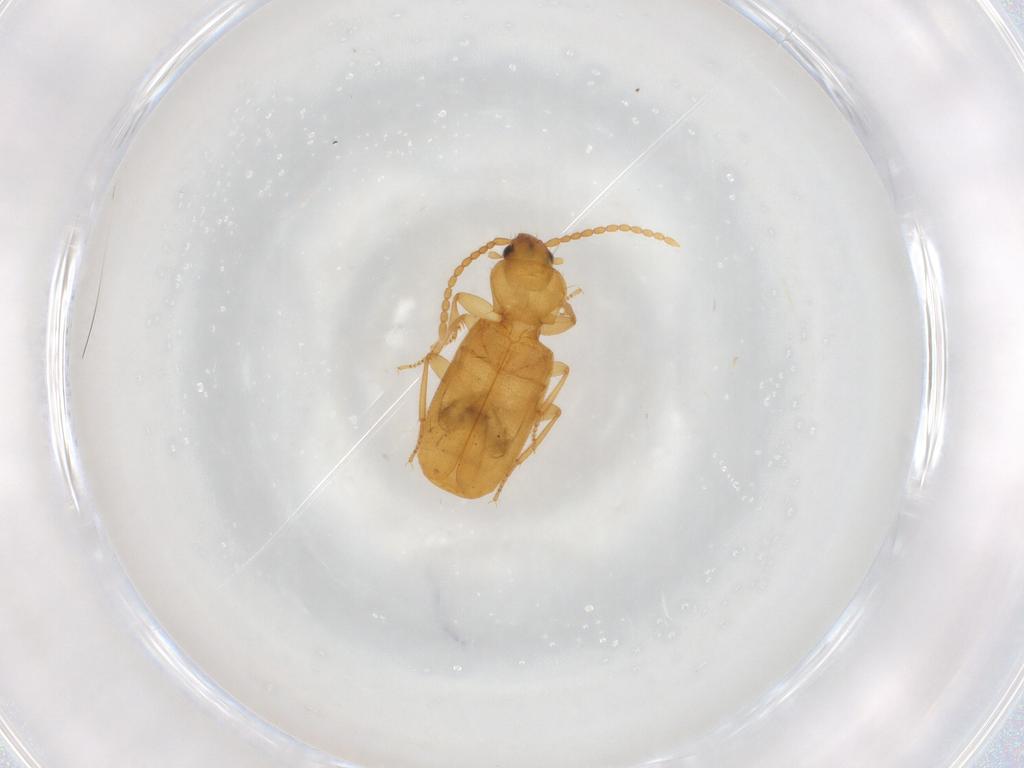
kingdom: Animalia
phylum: Arthropoda
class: Insecta
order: Coleoptera
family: Carabidae
